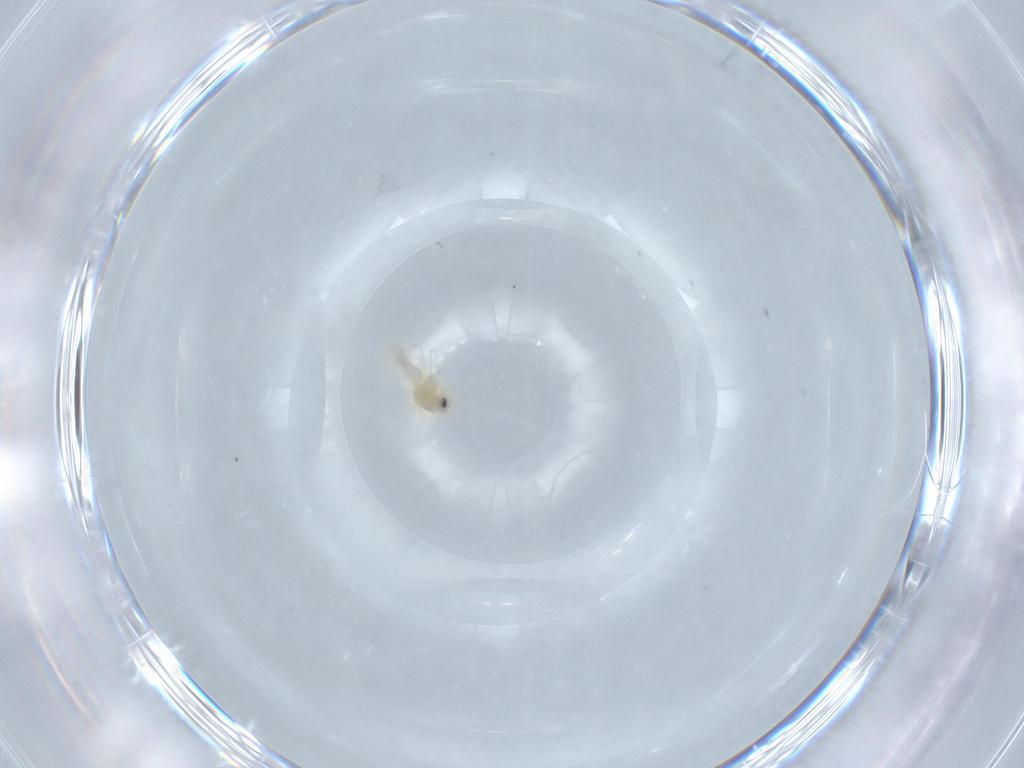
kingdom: Animalia
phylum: Arthropoda
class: Insecta
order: Hemiptera
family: Aleyrodidae
